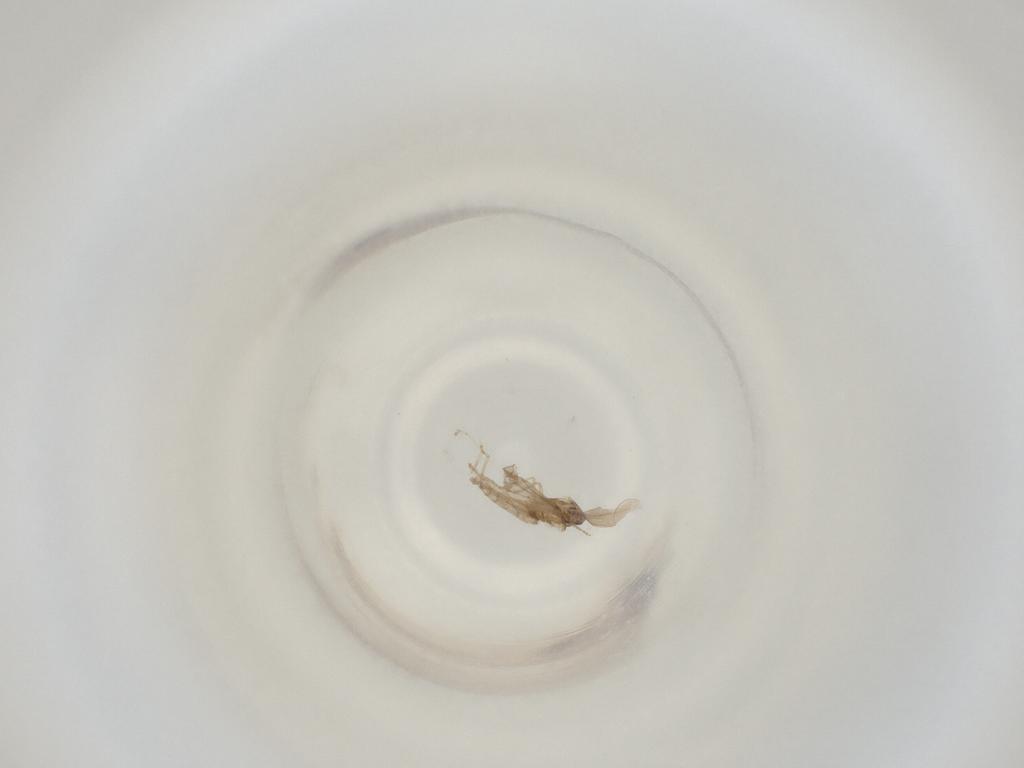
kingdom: Animalia
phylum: Arthropoda
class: Insecta
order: Diptera
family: Cecidomyiidae
